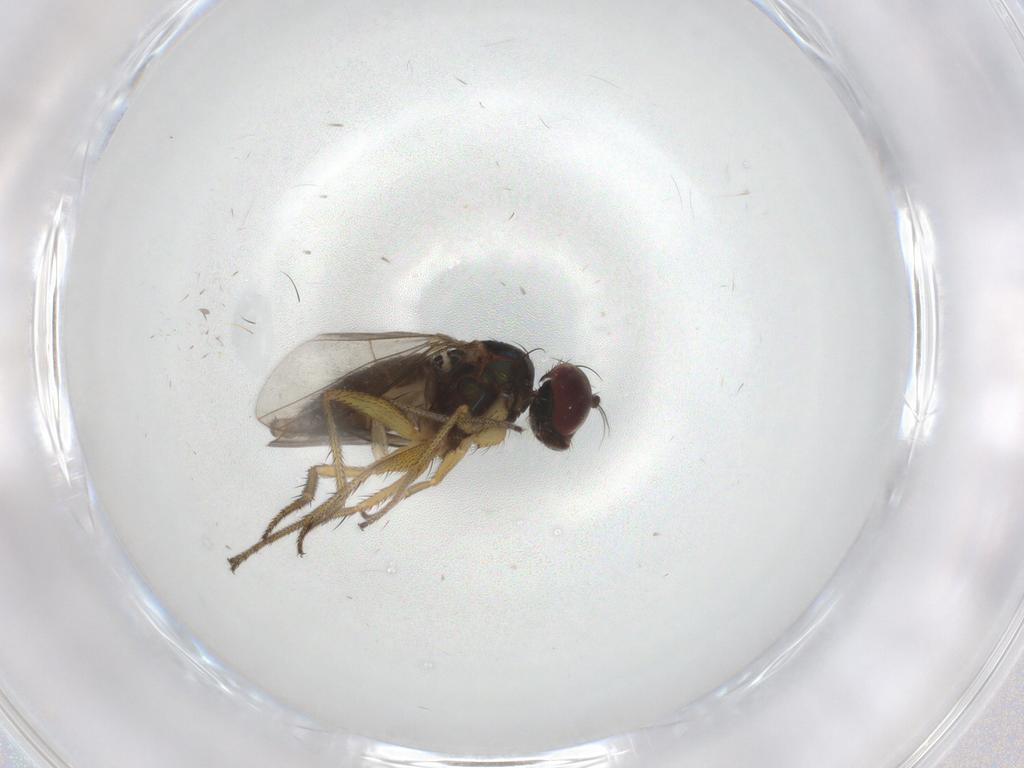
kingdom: Animalia
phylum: Arthropoda
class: Insecta
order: Diptera
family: Dolichopodidae
